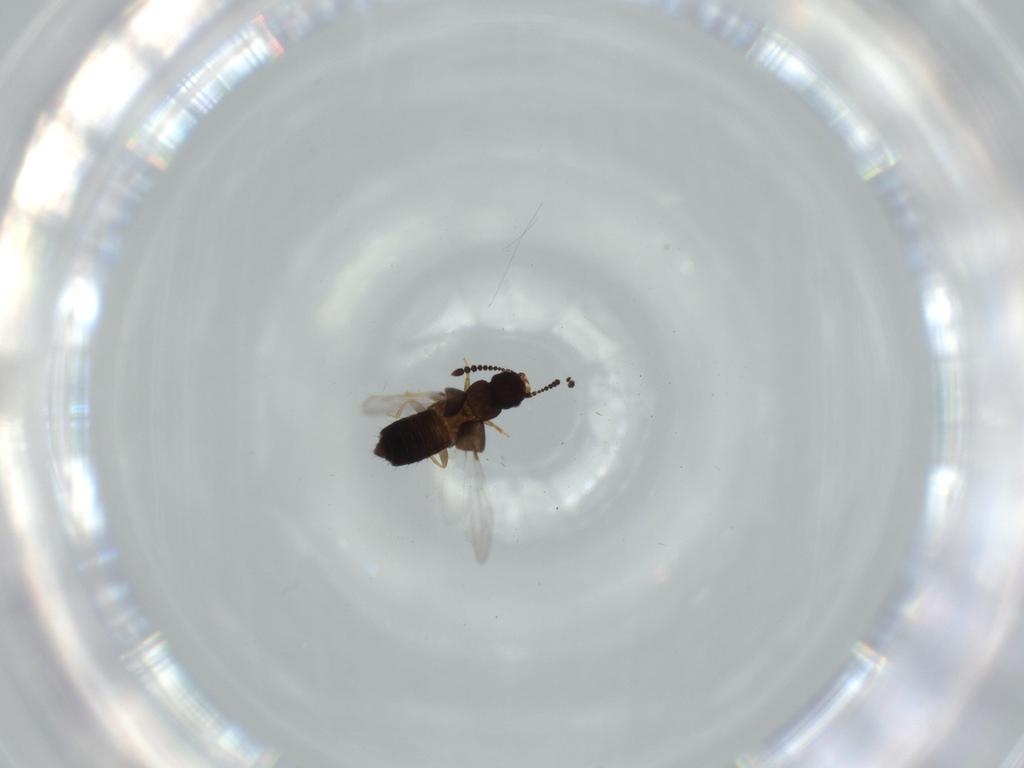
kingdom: Animalia
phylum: Arthropoda
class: Insecta
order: Coleoptera
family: Staphylinidae
